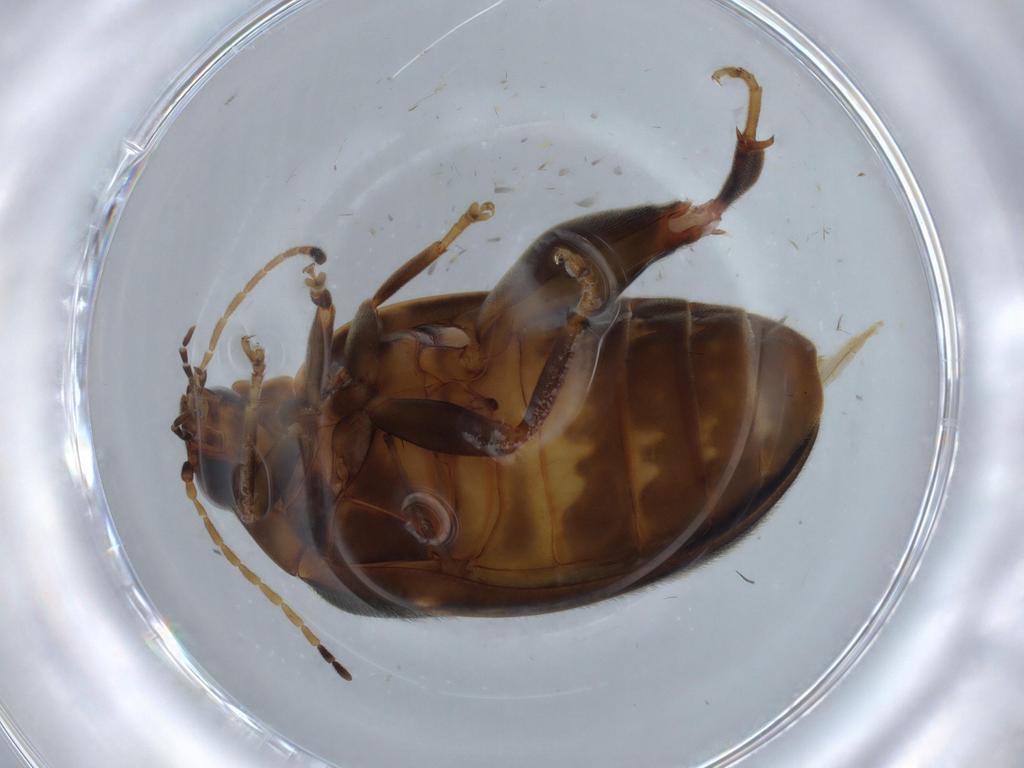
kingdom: Animalia
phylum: Arthropoda
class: Insecta
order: Coleoptera
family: Scirtidae
